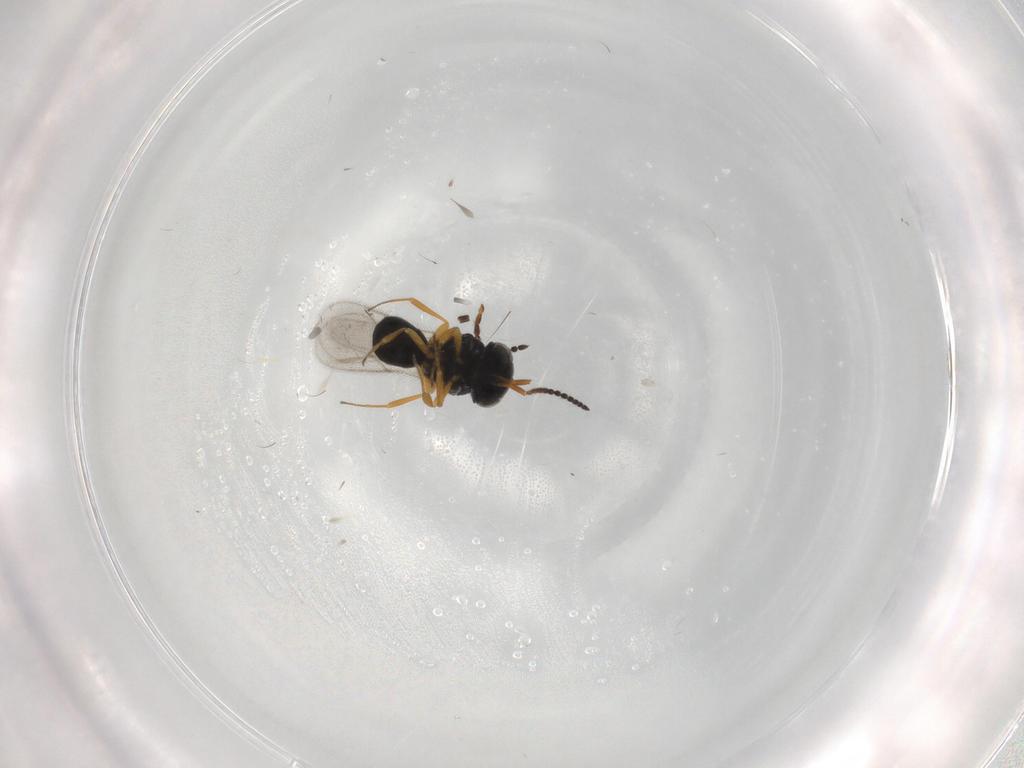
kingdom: Animalia
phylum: Arthropoda
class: Insecta
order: Hymenoptera
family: Scelionidae
